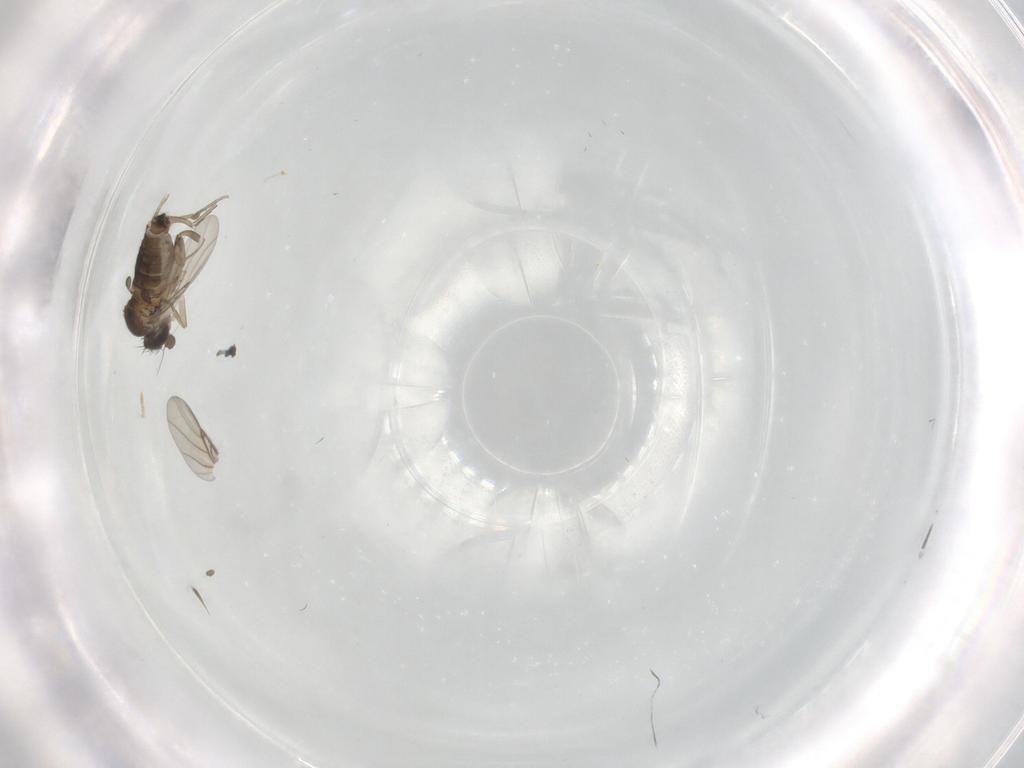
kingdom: Animalia
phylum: Arthropoda
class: Insecta
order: Diptera
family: Phoridae
